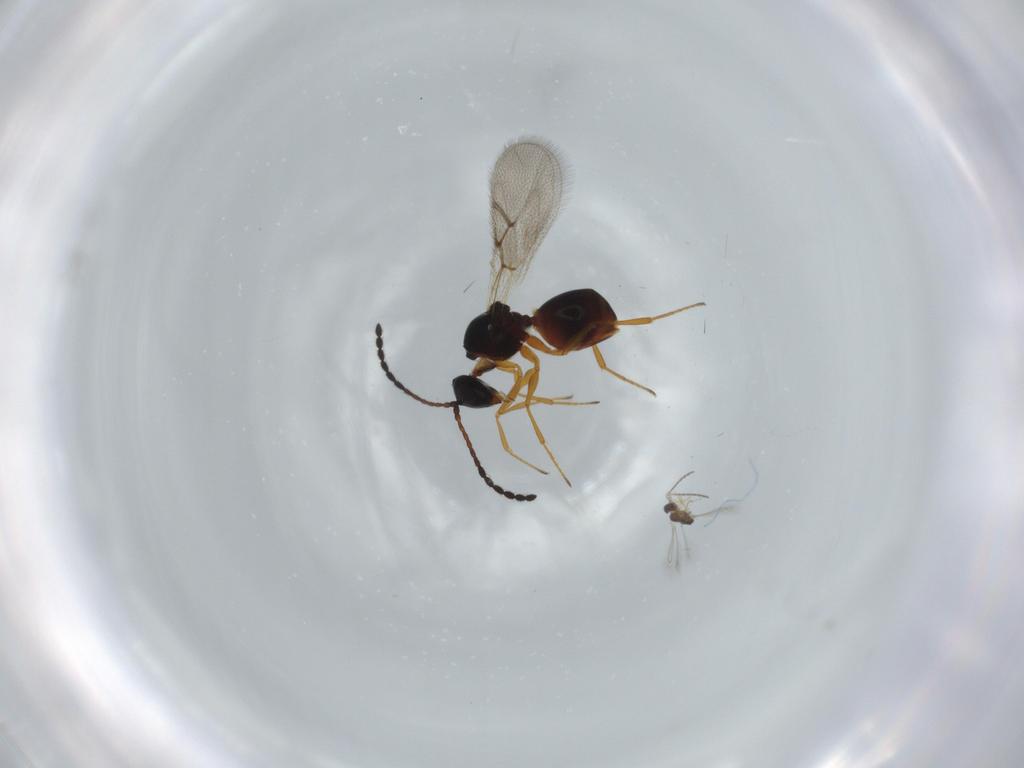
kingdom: Animalia
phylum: Arthropoda
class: Insecta
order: Hymenoptera
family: Figitidae
